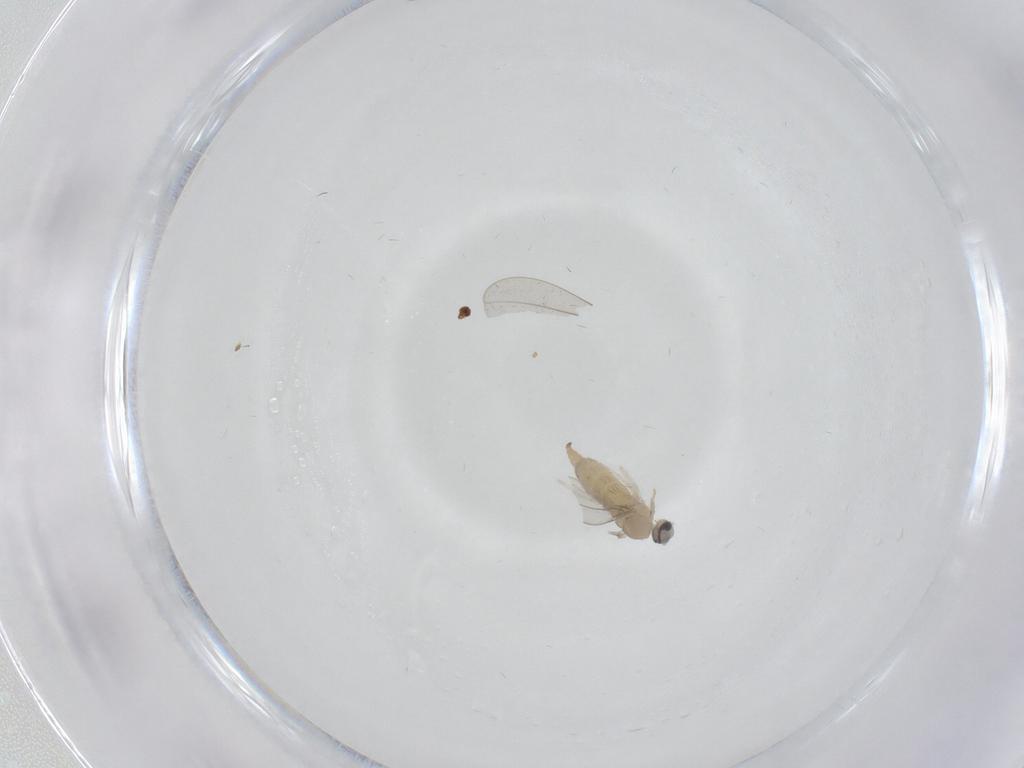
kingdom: Animalia
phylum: Arthropoda
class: Insecta
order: Diptera
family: Cecidomyiidae
